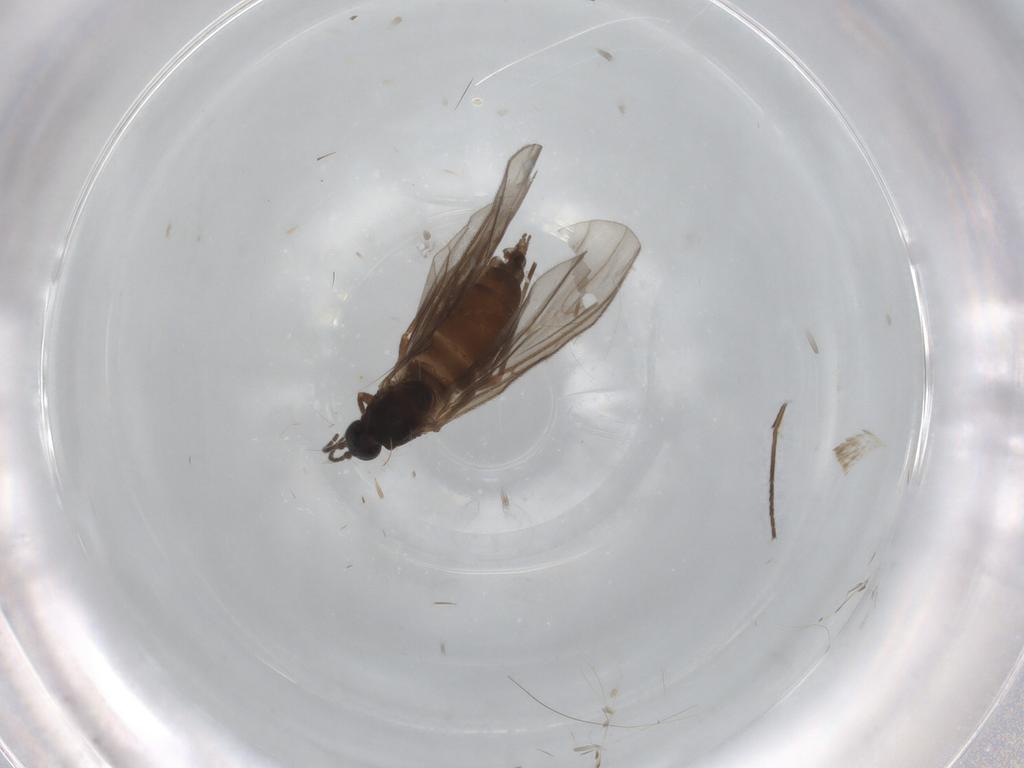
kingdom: Animalia
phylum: Arthropoda
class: Insecta
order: Diptera
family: Sciaridae
